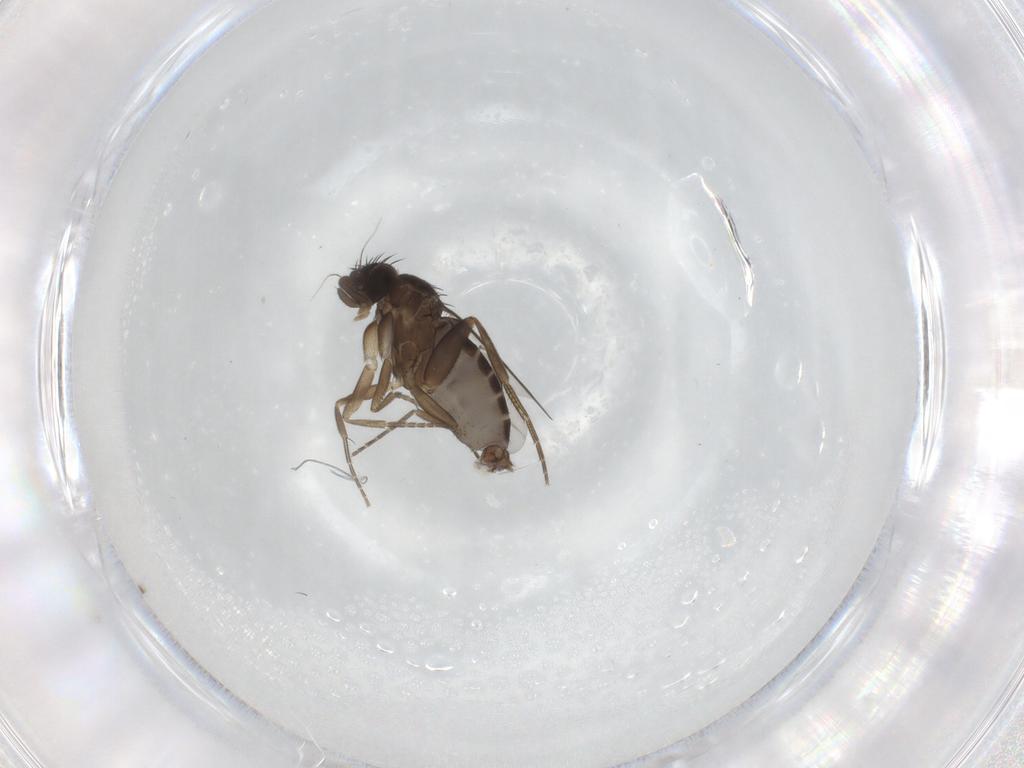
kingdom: Animalia
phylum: Arthropoda
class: Insecta
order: Diptera
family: Phoridae
